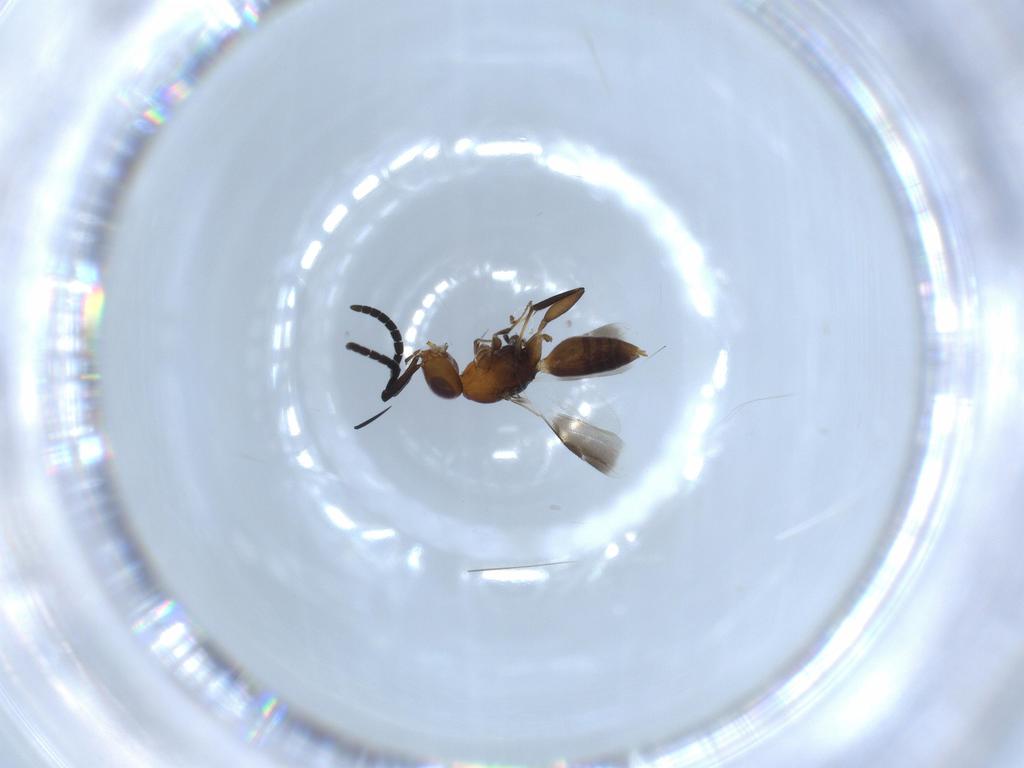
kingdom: Animalia
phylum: Arthropoda
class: Insecta
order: Hymenoptera
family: Megaspilidae
